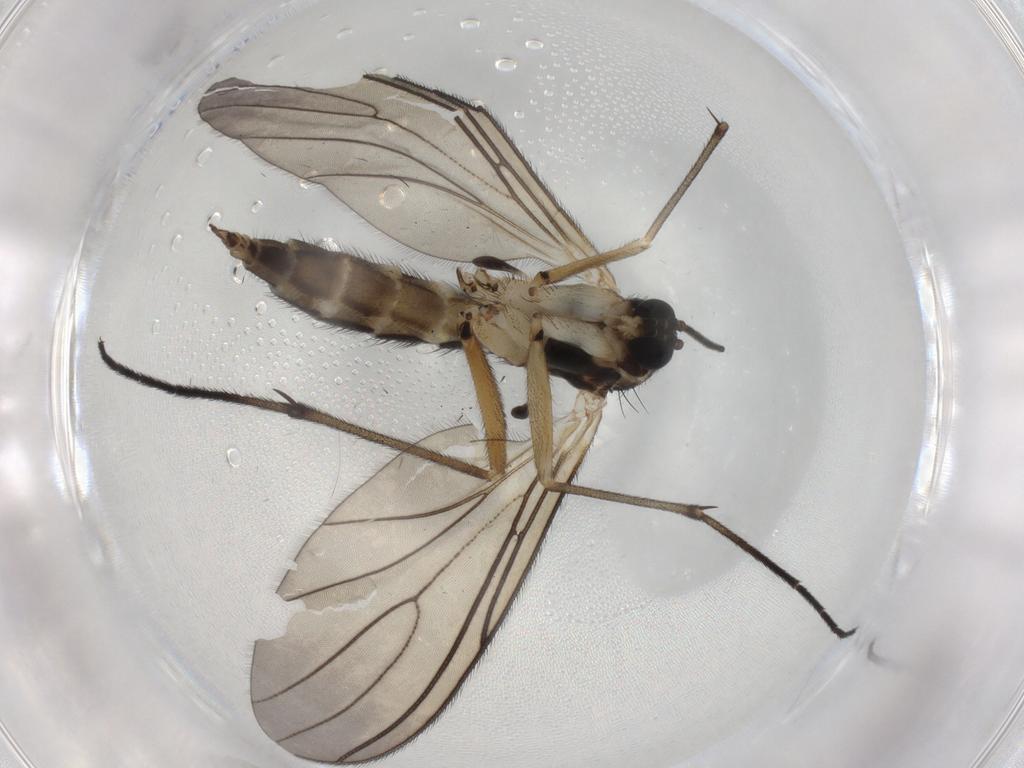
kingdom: Animalia
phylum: Arthropoda
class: Insecta
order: Diptera
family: Sciaridae
